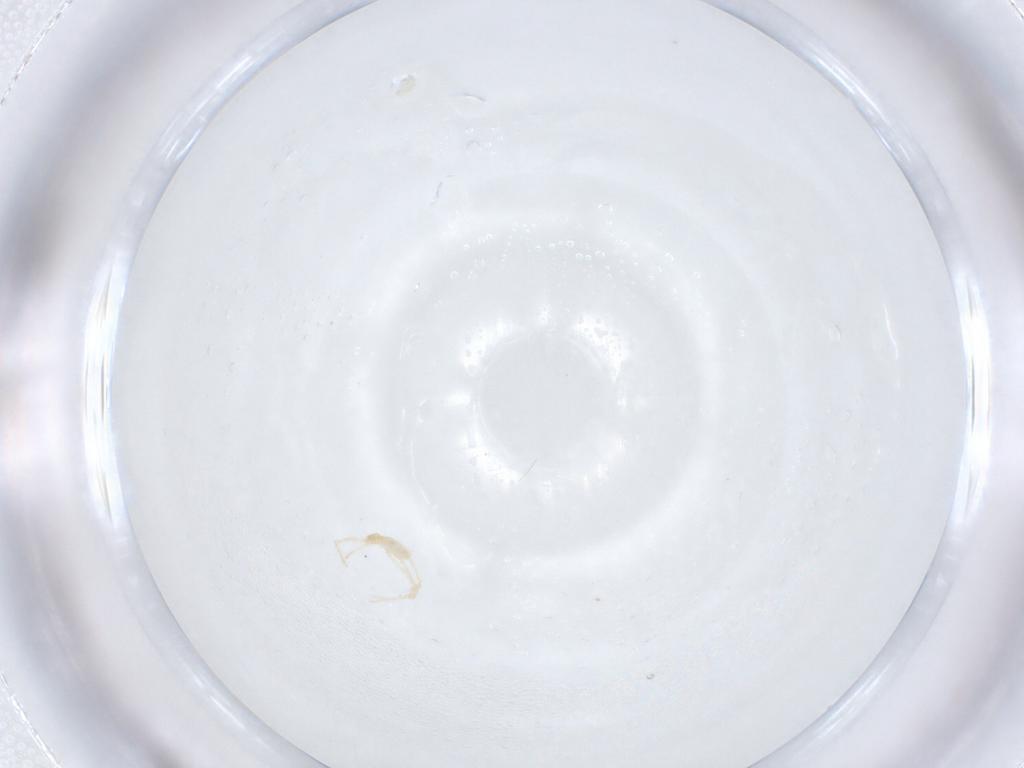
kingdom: Animalia
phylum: Arthropoda
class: Arachnida
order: Trombidiformes
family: Erythraeidae
